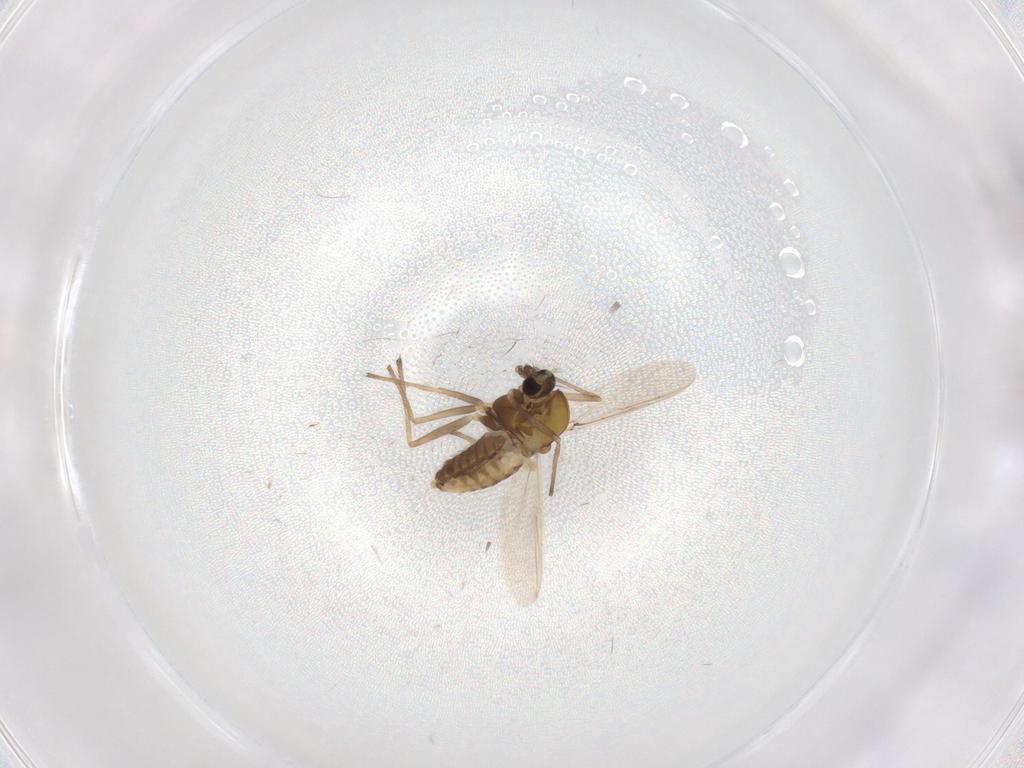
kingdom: Animalia
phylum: Arthropoda
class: Insecta
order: Diptera
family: Chironomidae
